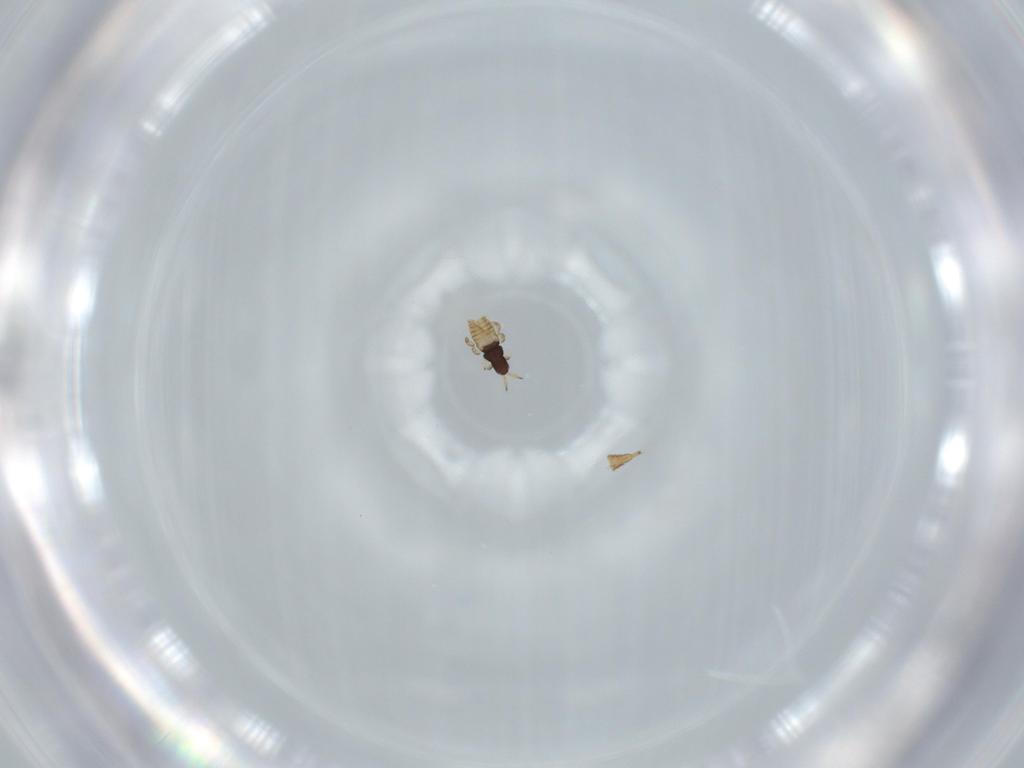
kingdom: Animalia
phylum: Arthropoda
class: Insecta
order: Thysanoptera
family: Phlaeothripidae
